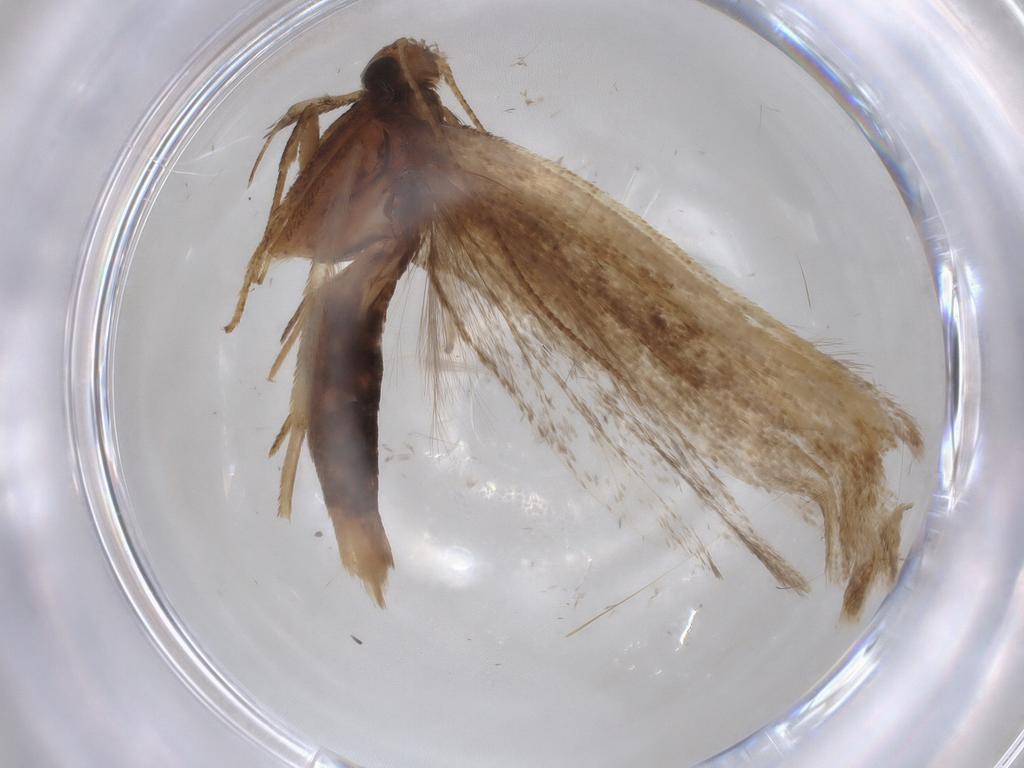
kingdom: Animalia
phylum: Arthropoda
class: Insecta
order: Lepidoptera
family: Gelechiidae
